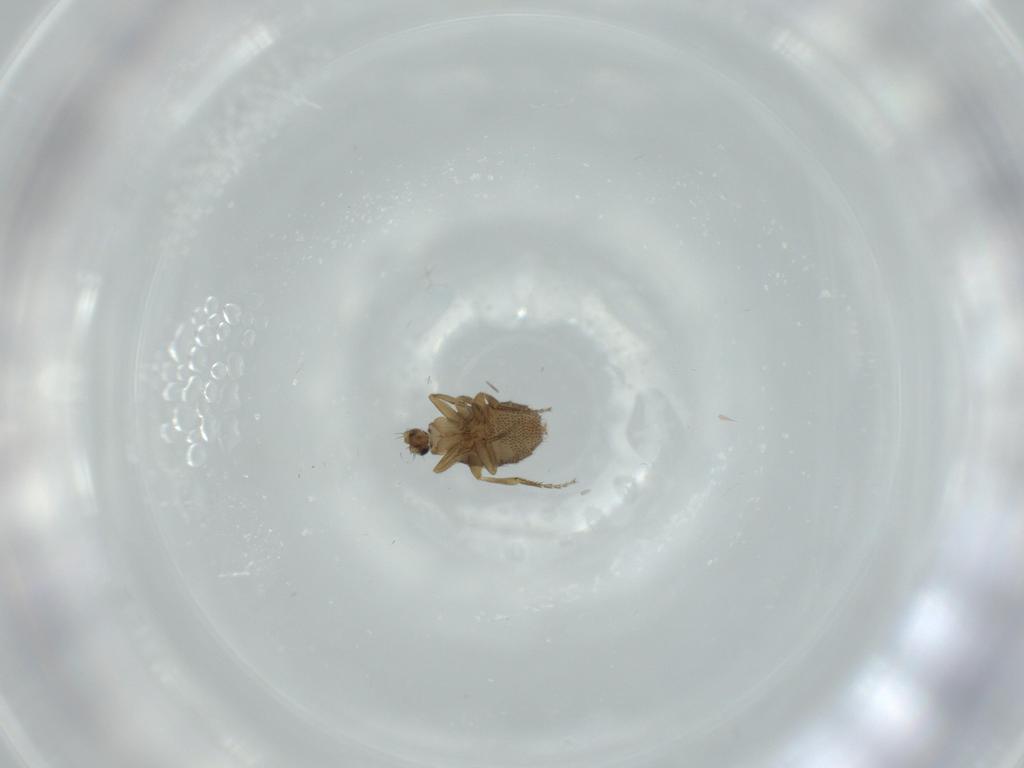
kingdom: Animalia
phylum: Arthropoda
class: Insecta
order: Diptera
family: Phoridae
